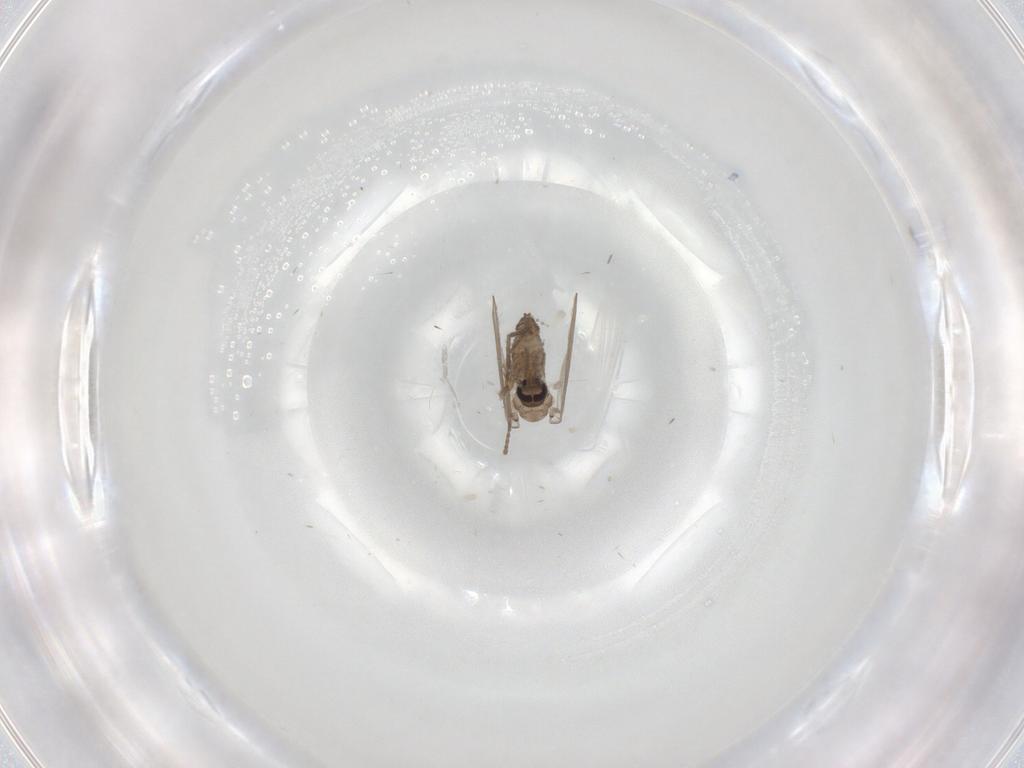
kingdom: Animalia
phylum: Arthropoda
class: Insecta
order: Diptera
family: Psychodidae
